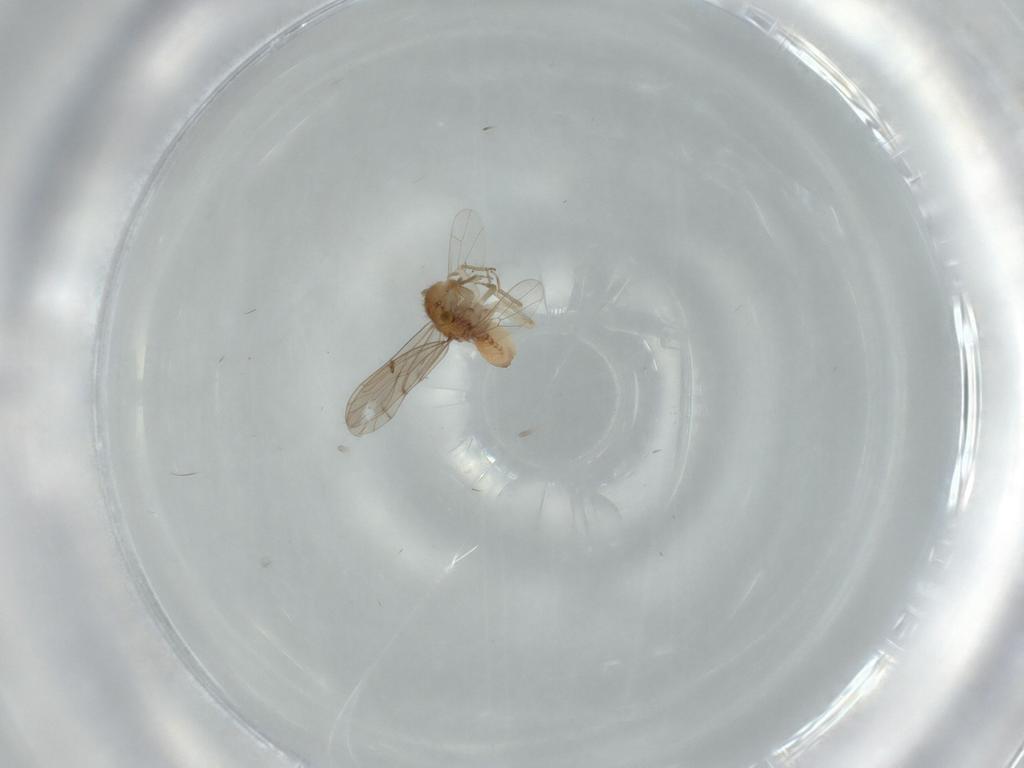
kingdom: Animalia
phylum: Arthropoda
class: Insecta
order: Psocodea
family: Ectopsocidae
